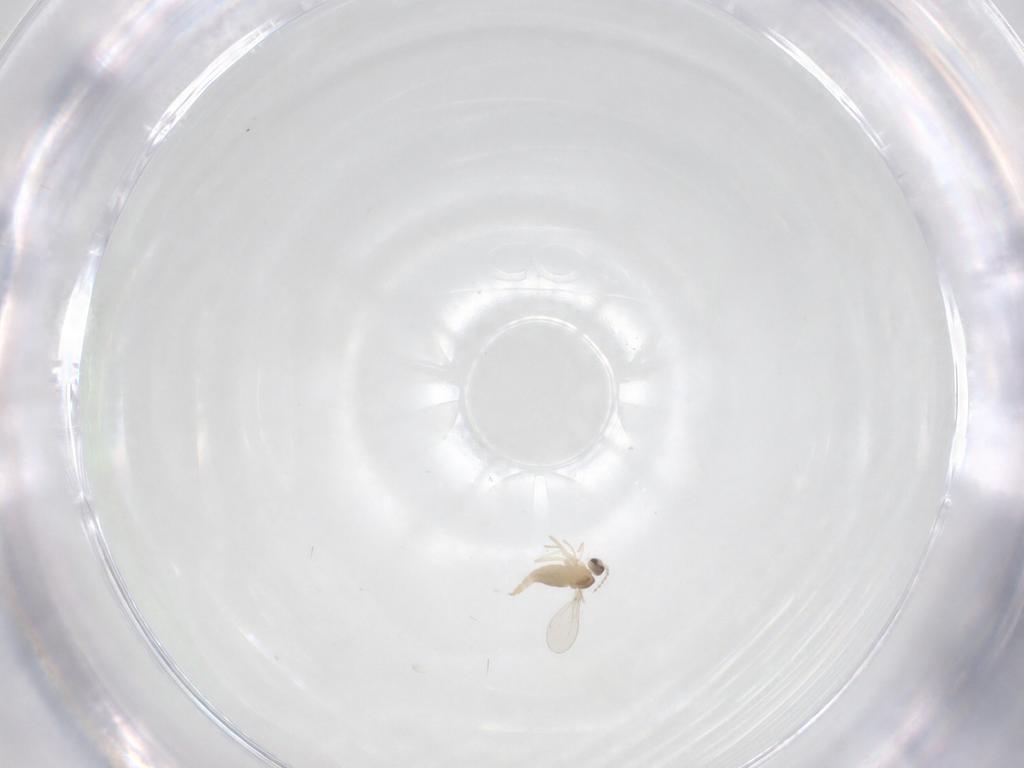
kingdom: Animalia
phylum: Arthropoda
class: Insecta
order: Diptera
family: Cecidomyiidae
